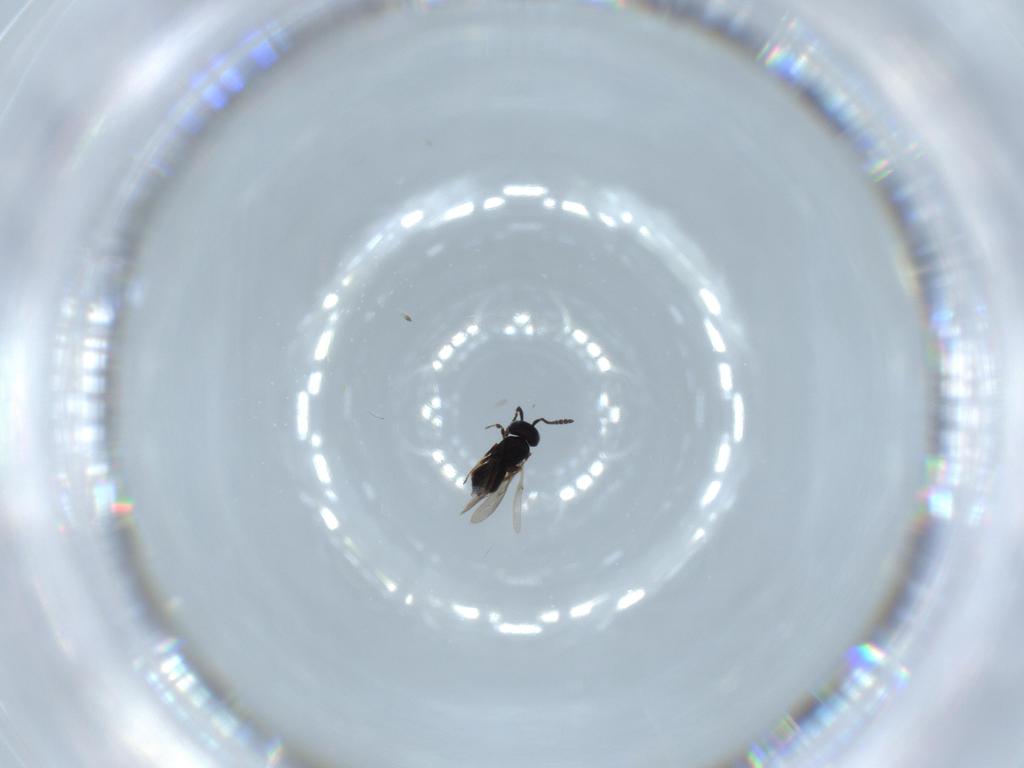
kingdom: Animalia
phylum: Arthropoda
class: Insecta
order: Hymenoptera
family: Scelionidae
